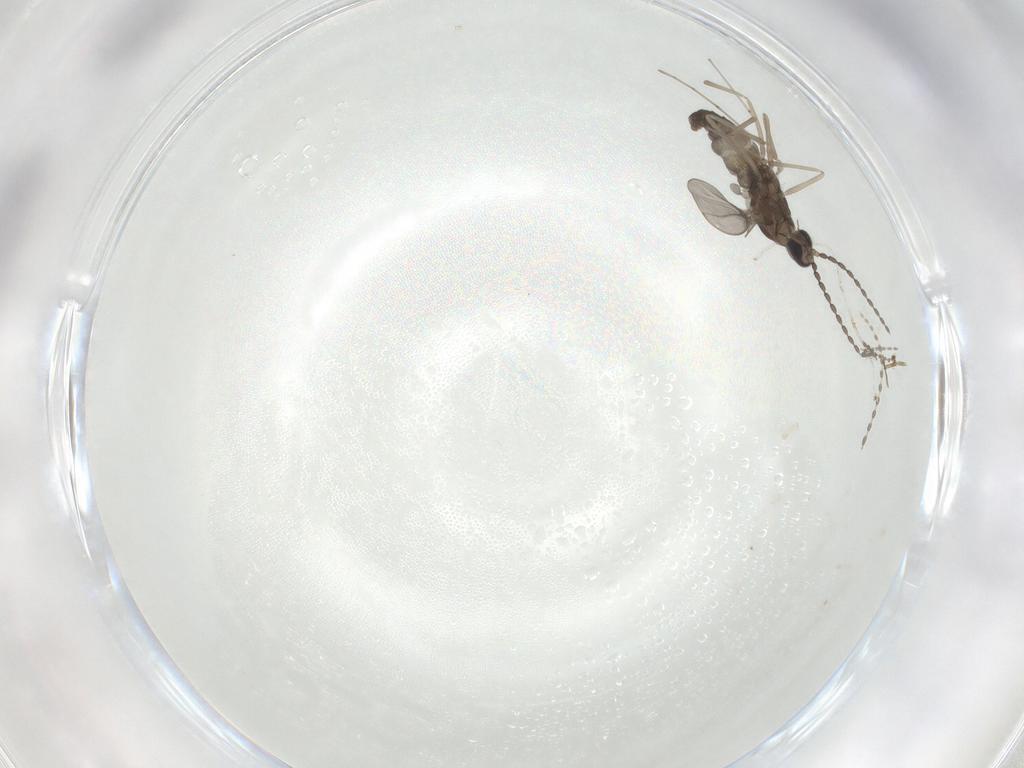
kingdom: Animalia
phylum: Arthropoda
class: Insecta
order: Diptera
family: Cecidomyiidae
